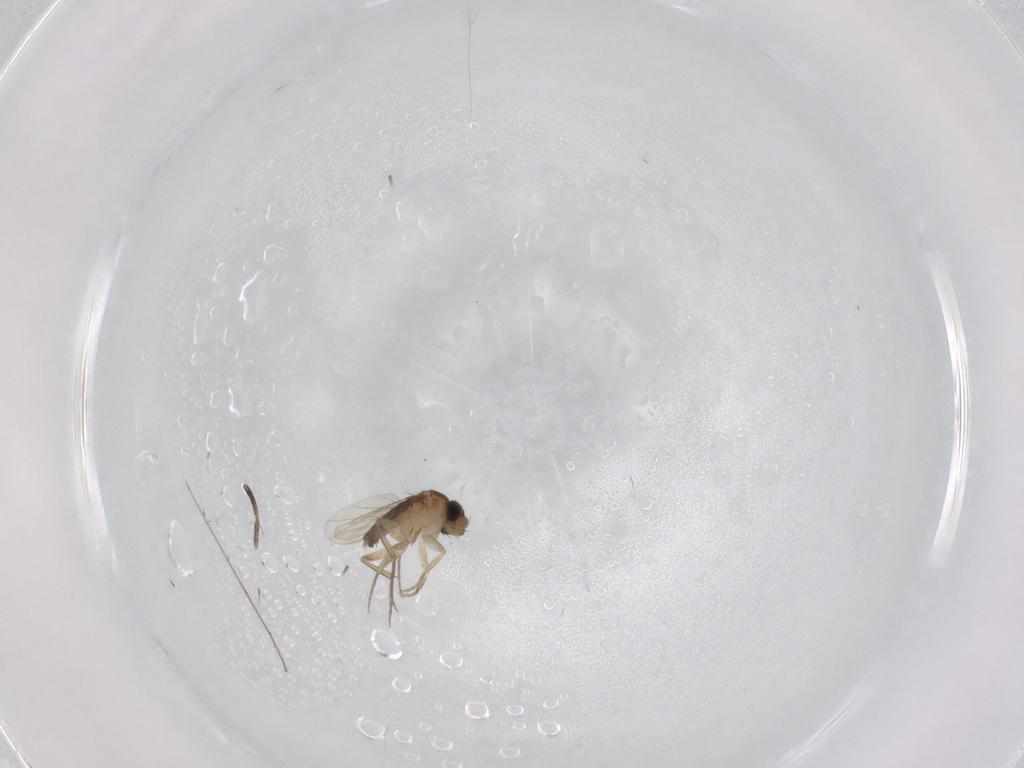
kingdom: Animalia
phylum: Arthropoda
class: Insecta
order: Diptera
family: Phoridae
